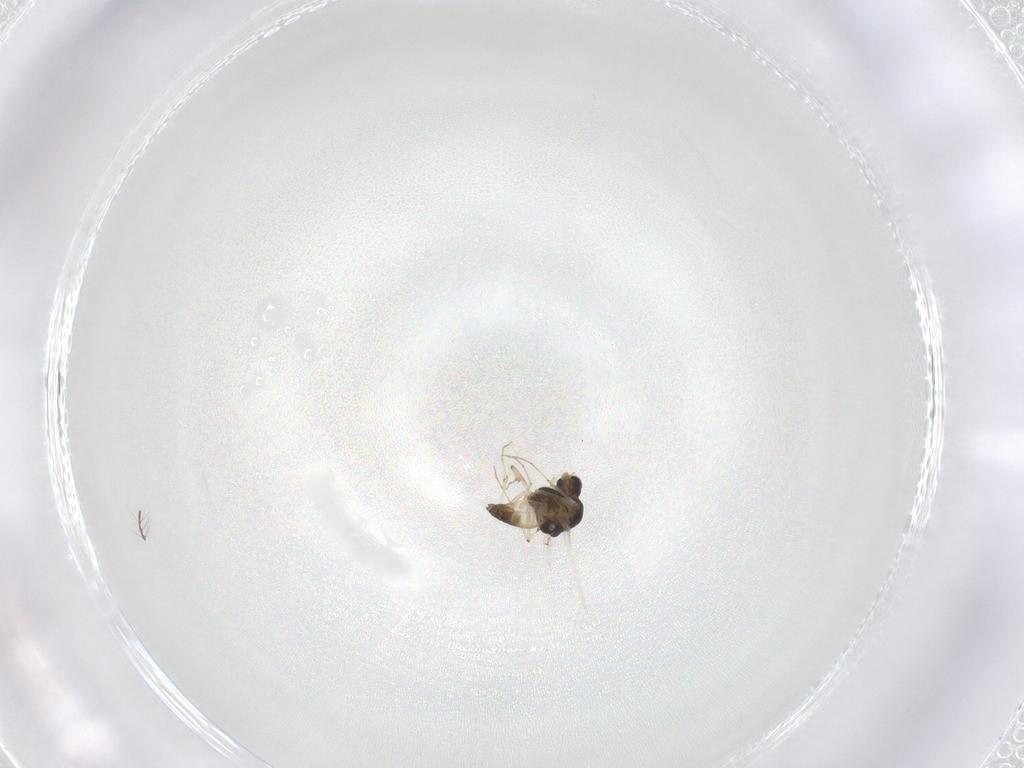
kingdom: Animalia
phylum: Arthropoda
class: Insecta
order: Diptera
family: Chironomidae
